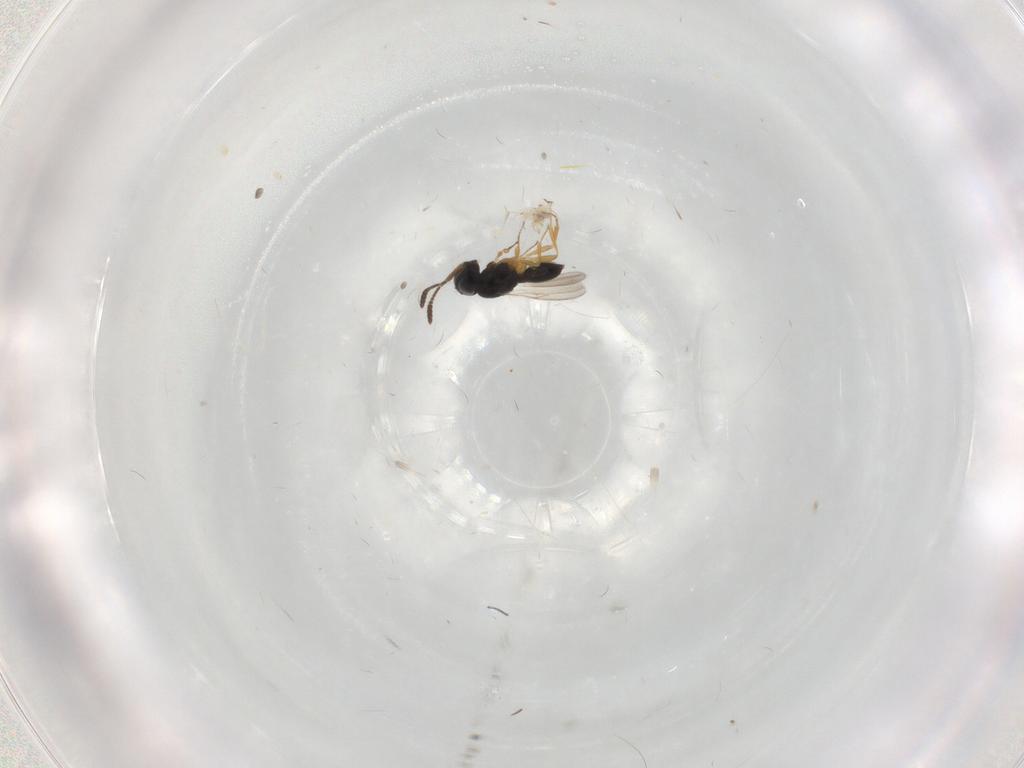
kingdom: Animalia
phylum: Arthropoda
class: Insecta
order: Hymenoptera
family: Scelionidae
